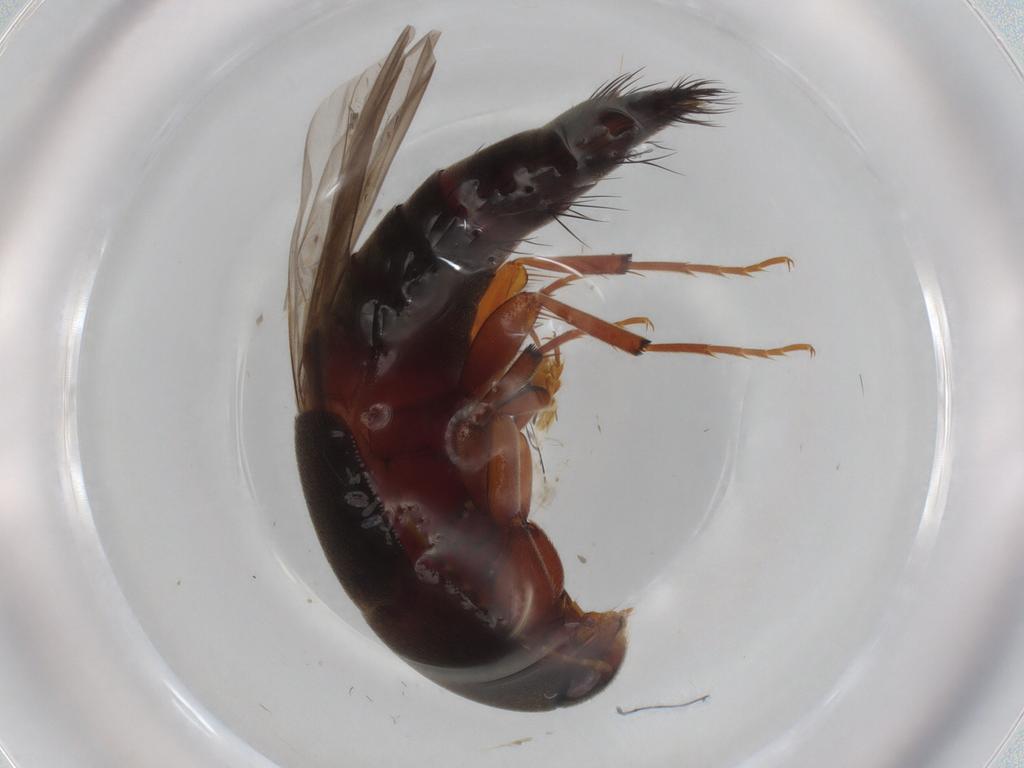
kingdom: Animalia
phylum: Arthropoda
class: Insecta
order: Coleoptera
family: Staphylinidae
